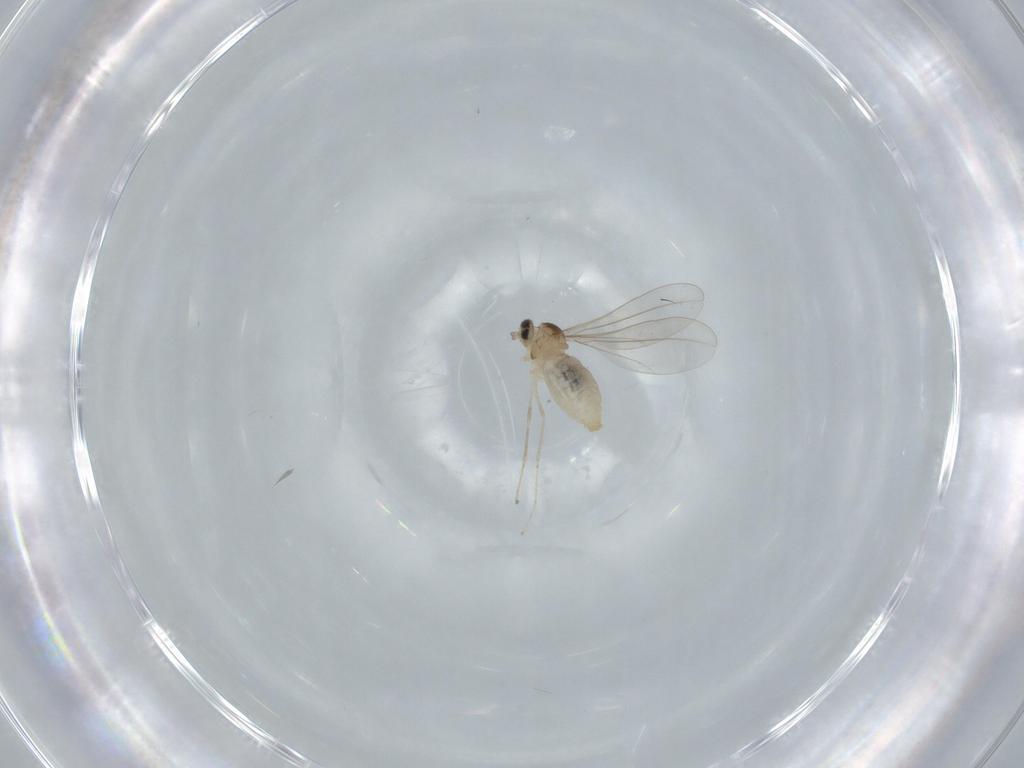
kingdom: Animalia
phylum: Arthropoda
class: Insecta
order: Diptera
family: Cecidomyiidae
